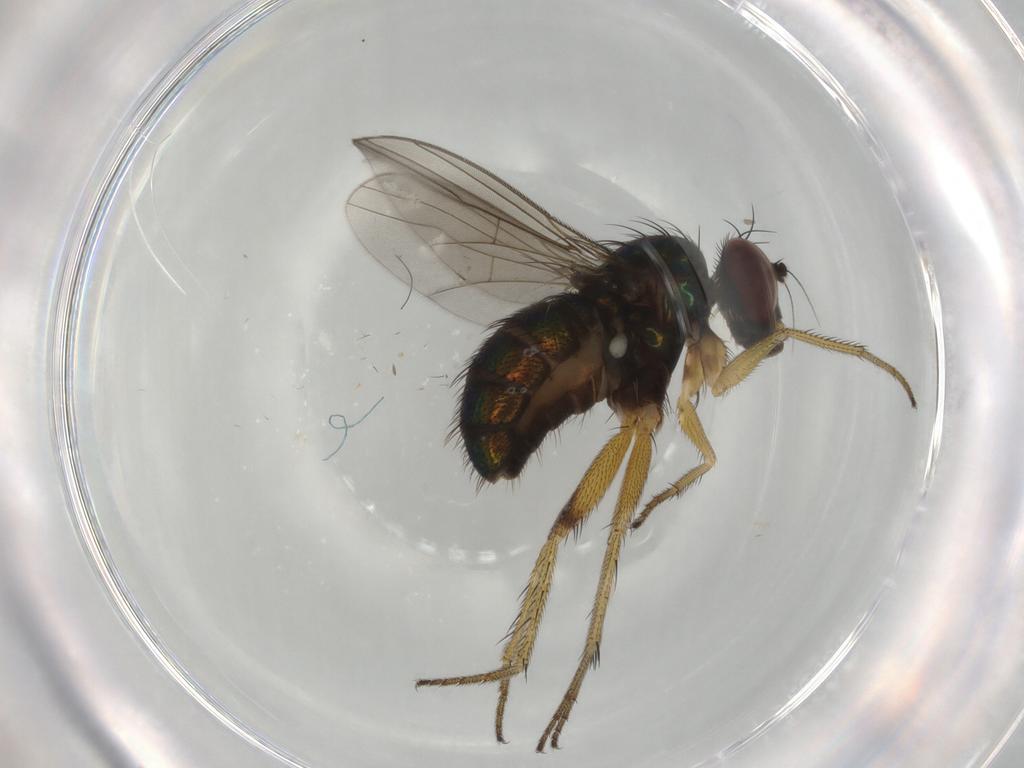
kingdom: Animalia
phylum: Arthropoda
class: Insecta
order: Diptera
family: Dolichopodidae
